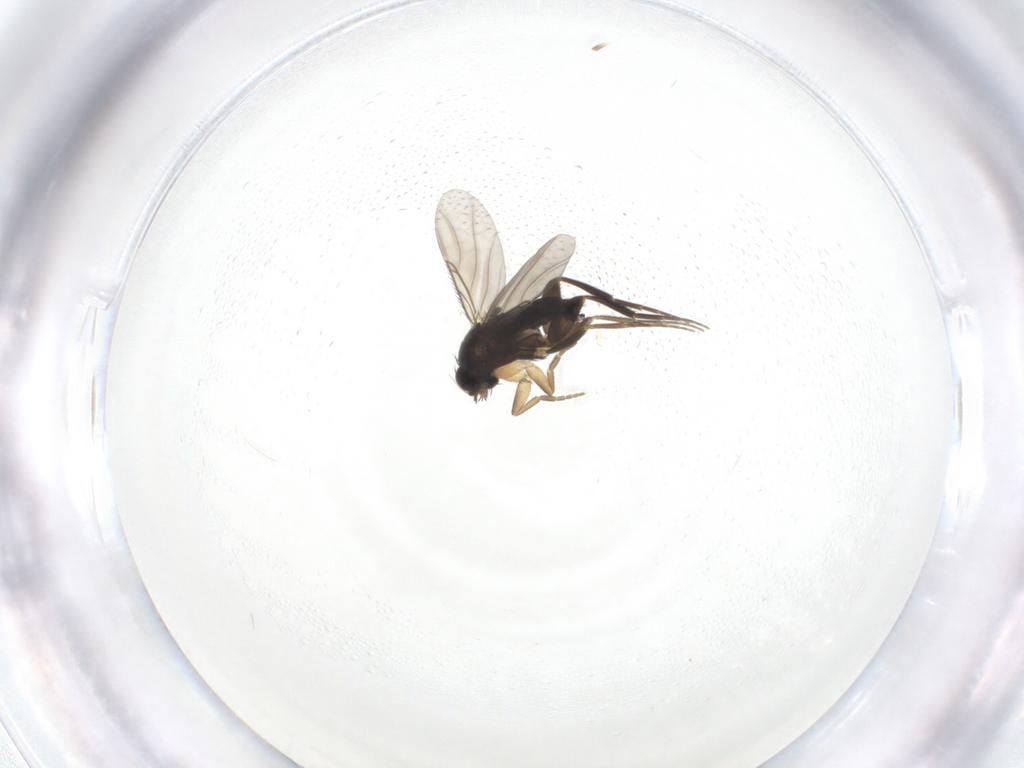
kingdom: Animalia
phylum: Arthropoda
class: Insecta
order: Diptera
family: Phoridae
